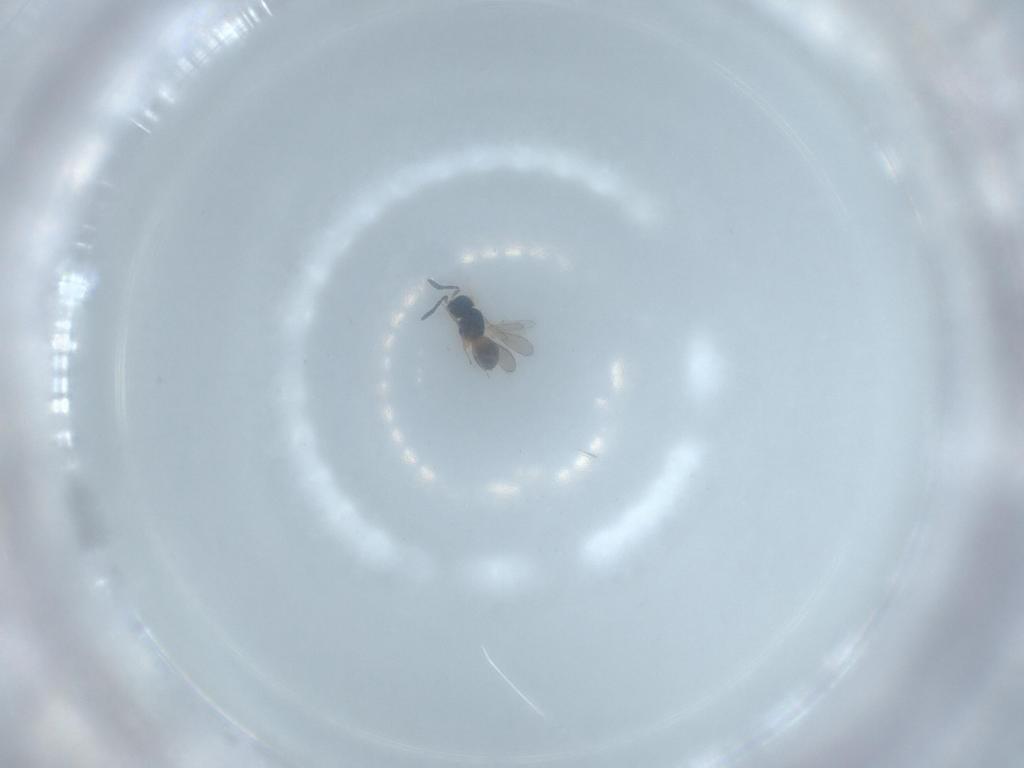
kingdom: Animalia
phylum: Arthropoda
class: Insecta
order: Hymenoptera
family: Scelionidae
